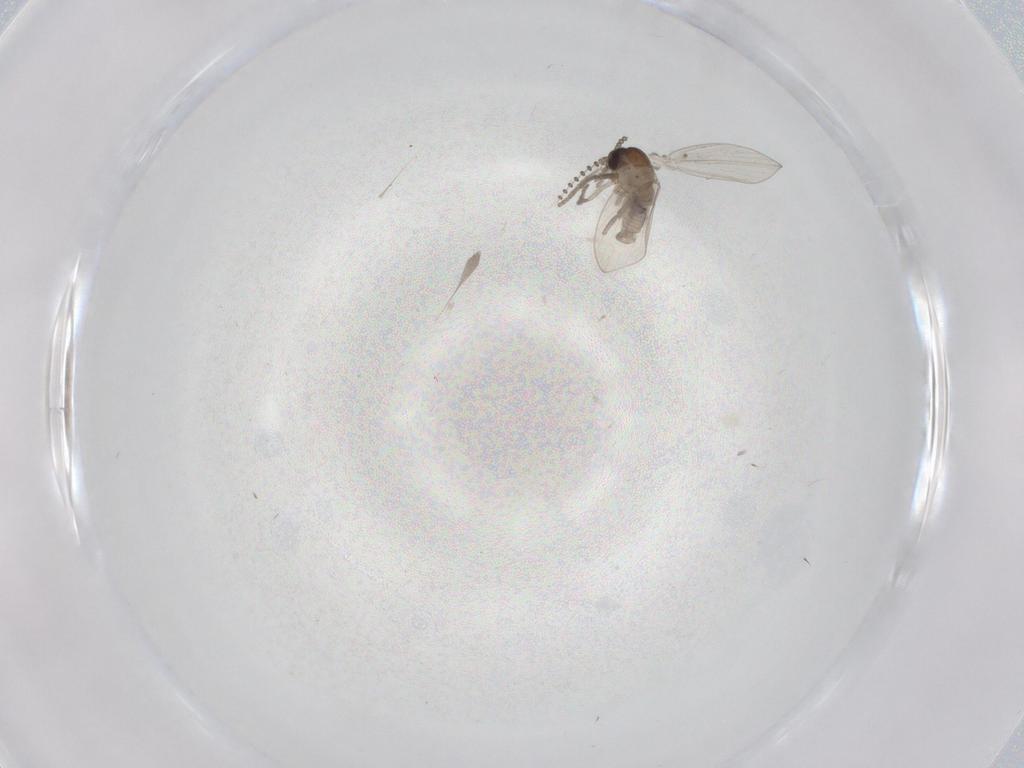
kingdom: Animalia
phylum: Arthropoda
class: Insecta
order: Diptera
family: Psychodidae
